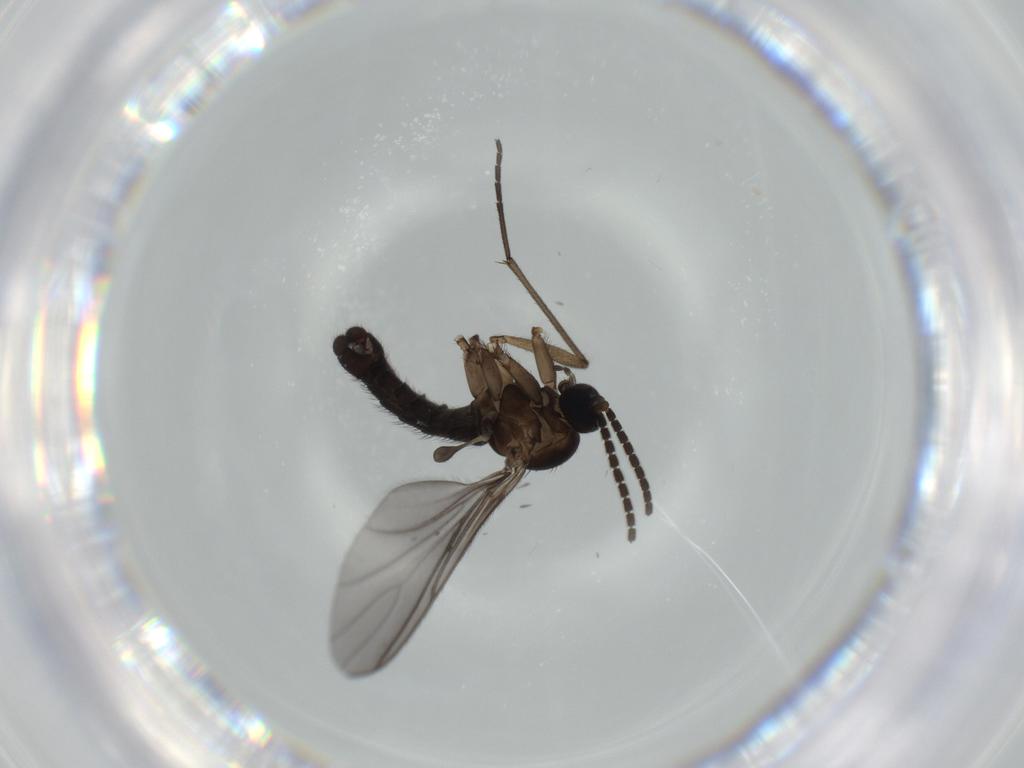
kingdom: Animalia
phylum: Arthropoda
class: Insecta
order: Diptera
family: Sciaridae
